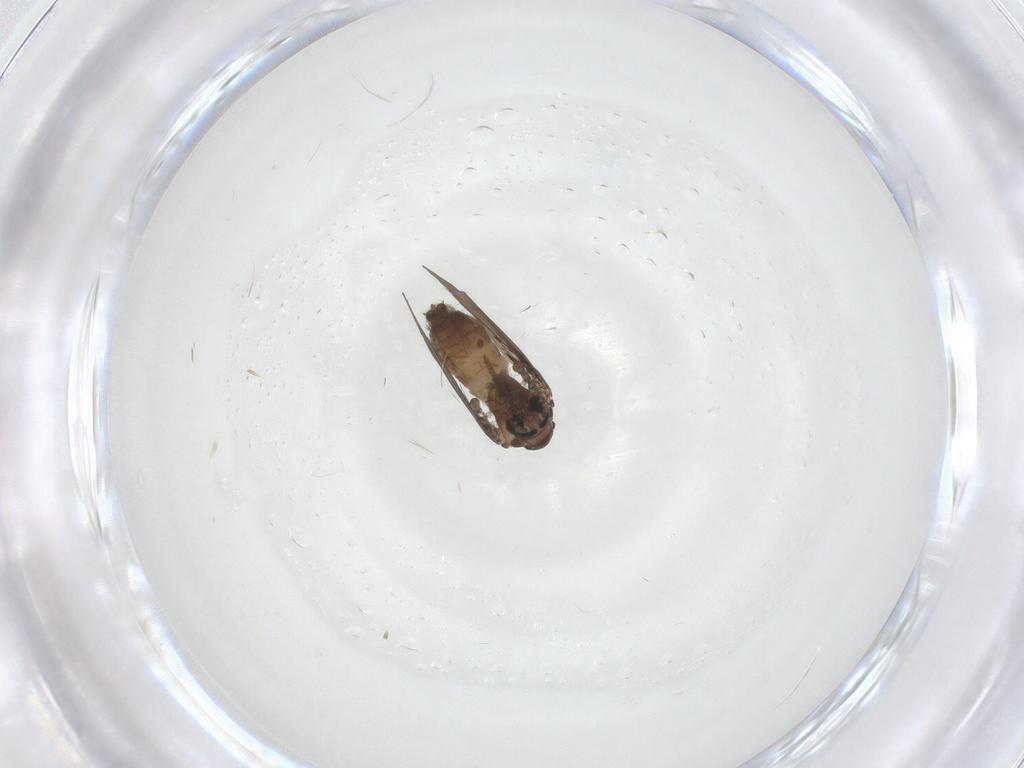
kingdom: Animalia
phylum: Arthropoda
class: Insecta
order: Diptera
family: Psychodidae
